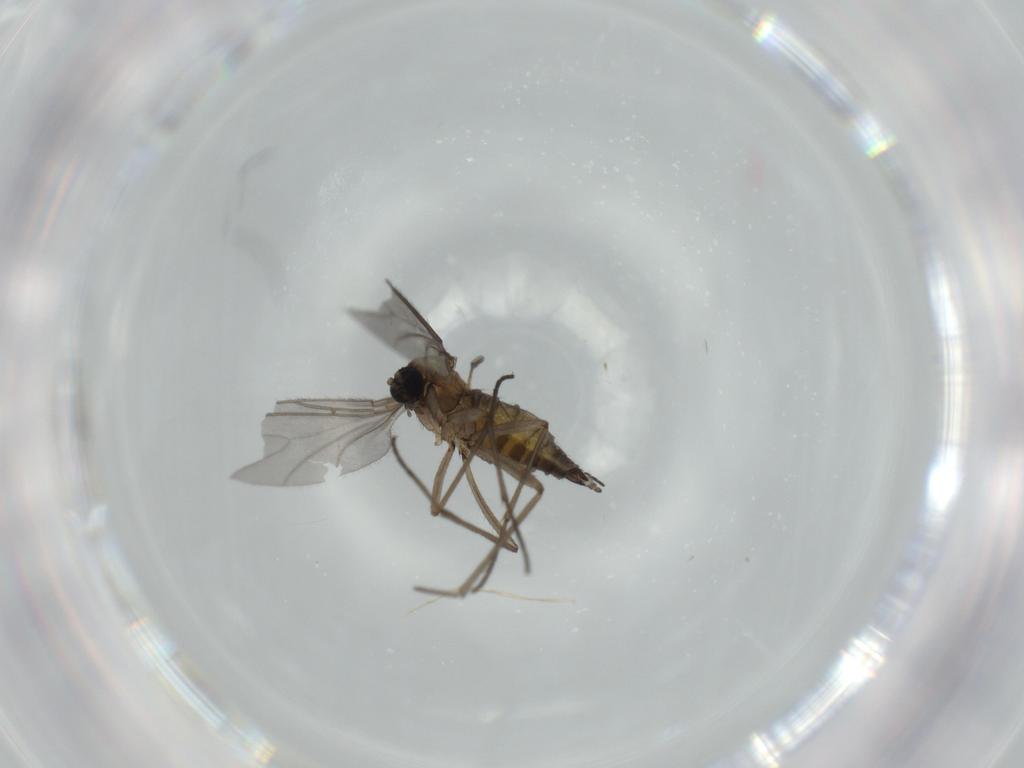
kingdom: Animalia
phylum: Arthropoda
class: Insecta
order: Diptera
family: Sciaridae
